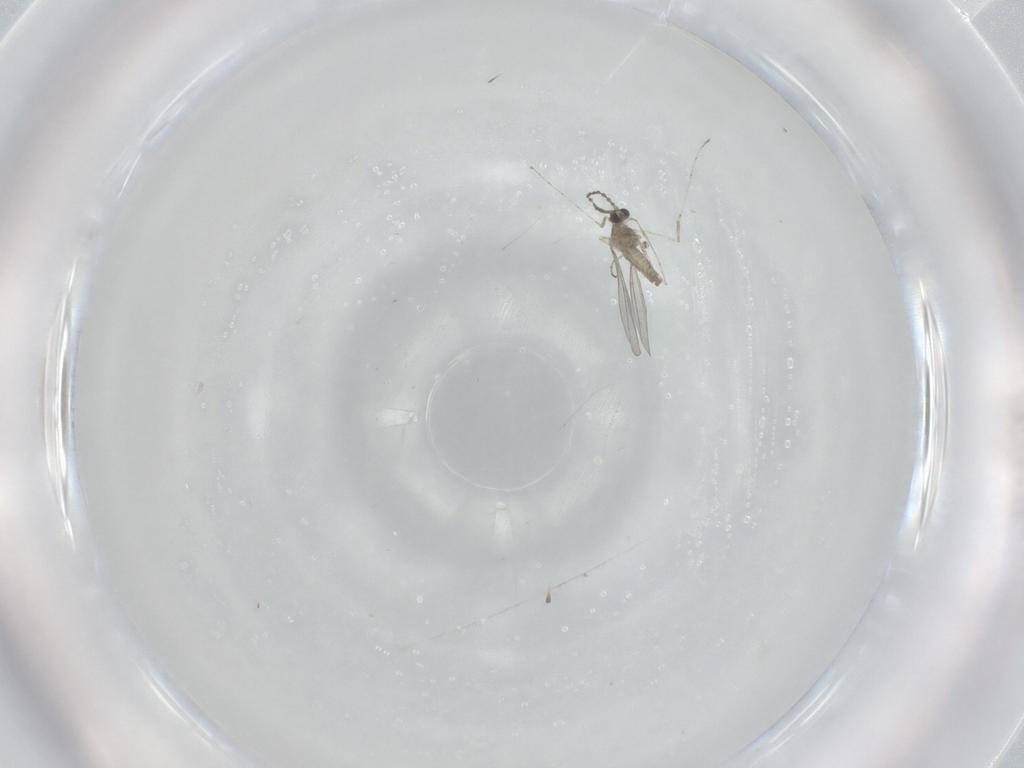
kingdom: Animalia
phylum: Arthropoda
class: Insecta
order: Diptera
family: Cecidomyiidae
